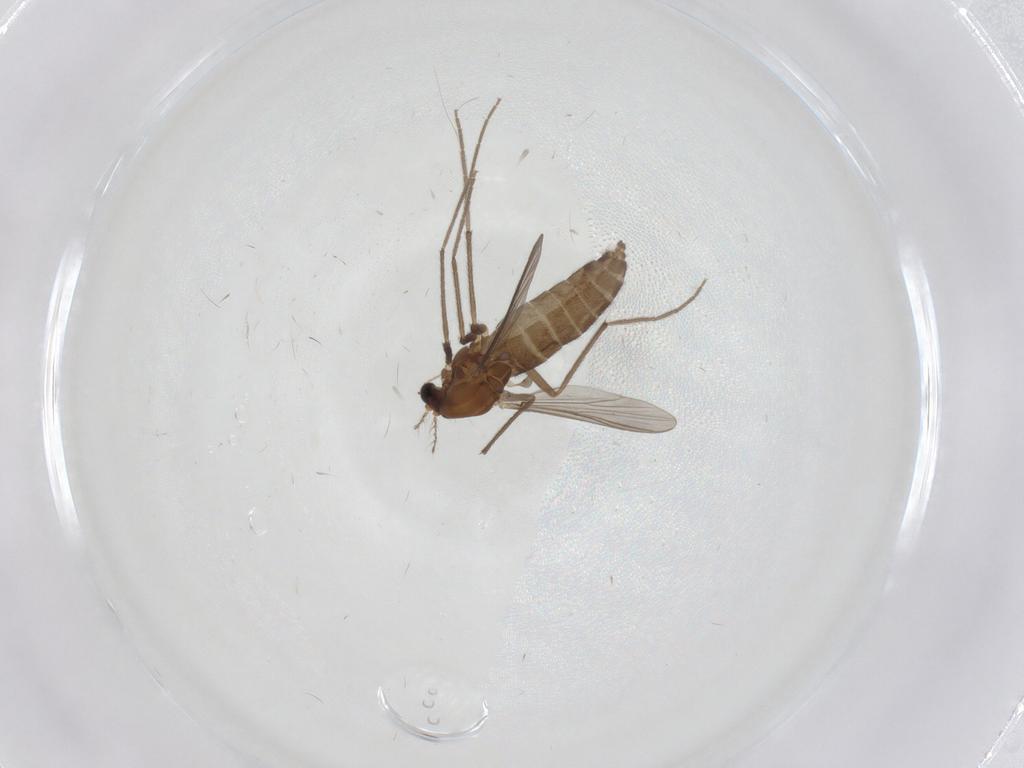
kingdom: Animalia
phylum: Arthropoda
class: Insecta
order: Diptera
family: Chironomidae
